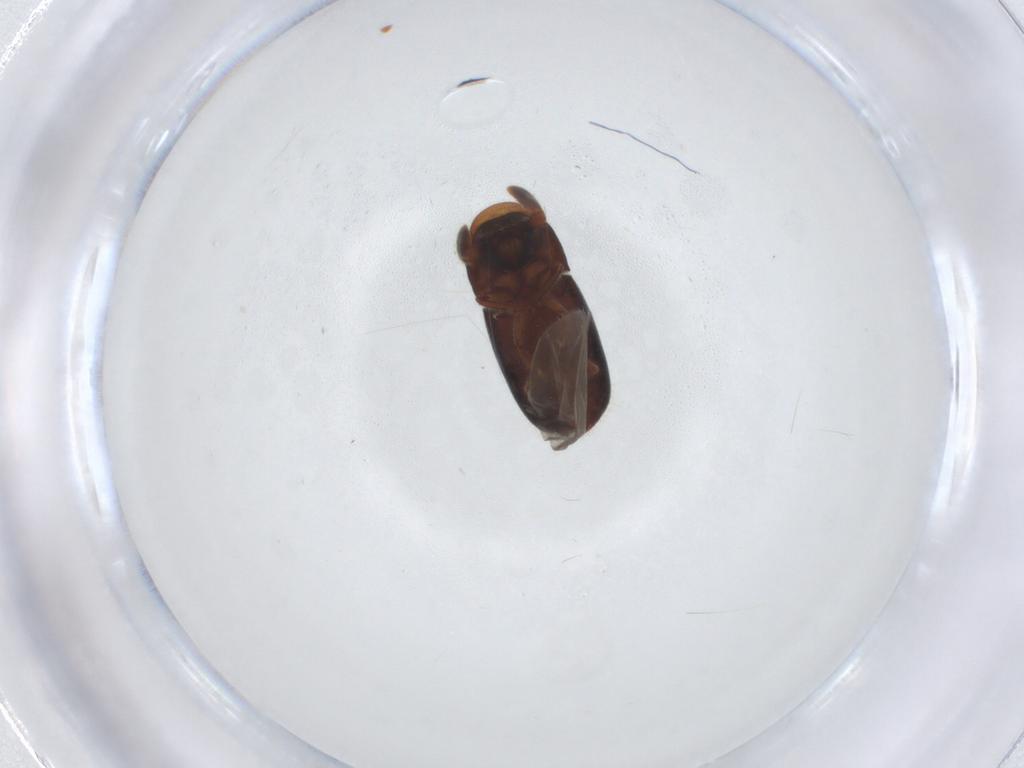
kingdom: Animalia
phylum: Arthropoda
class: Insecta
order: Coleoptera
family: Curculionidae
